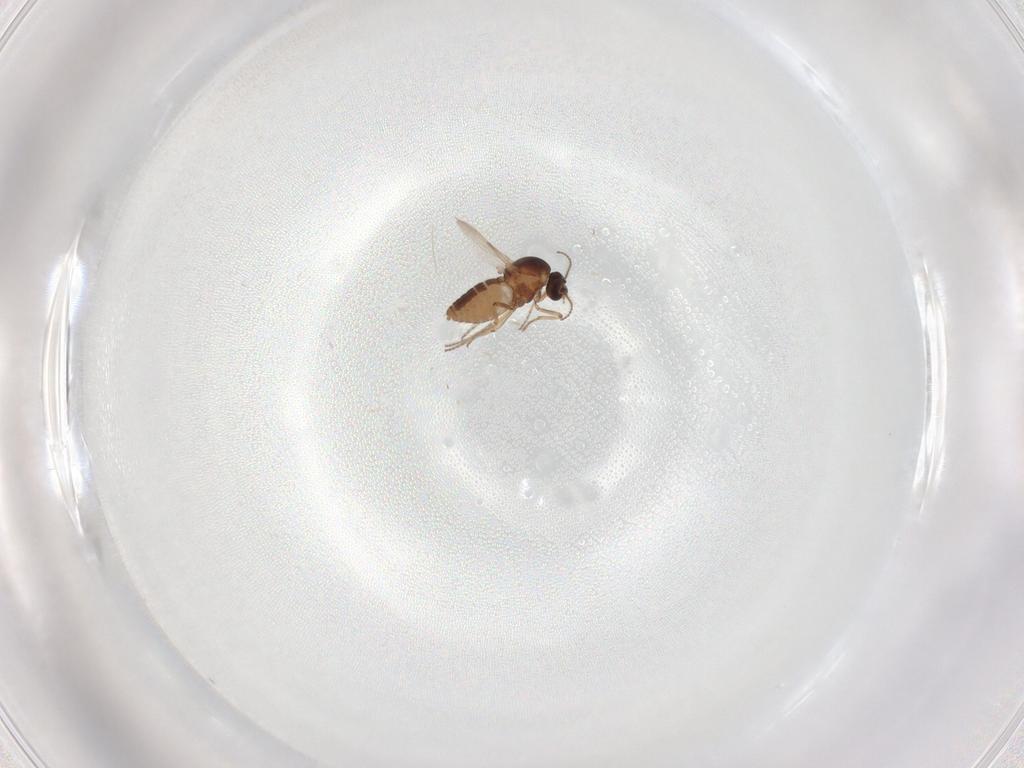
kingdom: Animalia
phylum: Arthropoda
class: Insecta
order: Diptera
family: Ceratopogonidae
